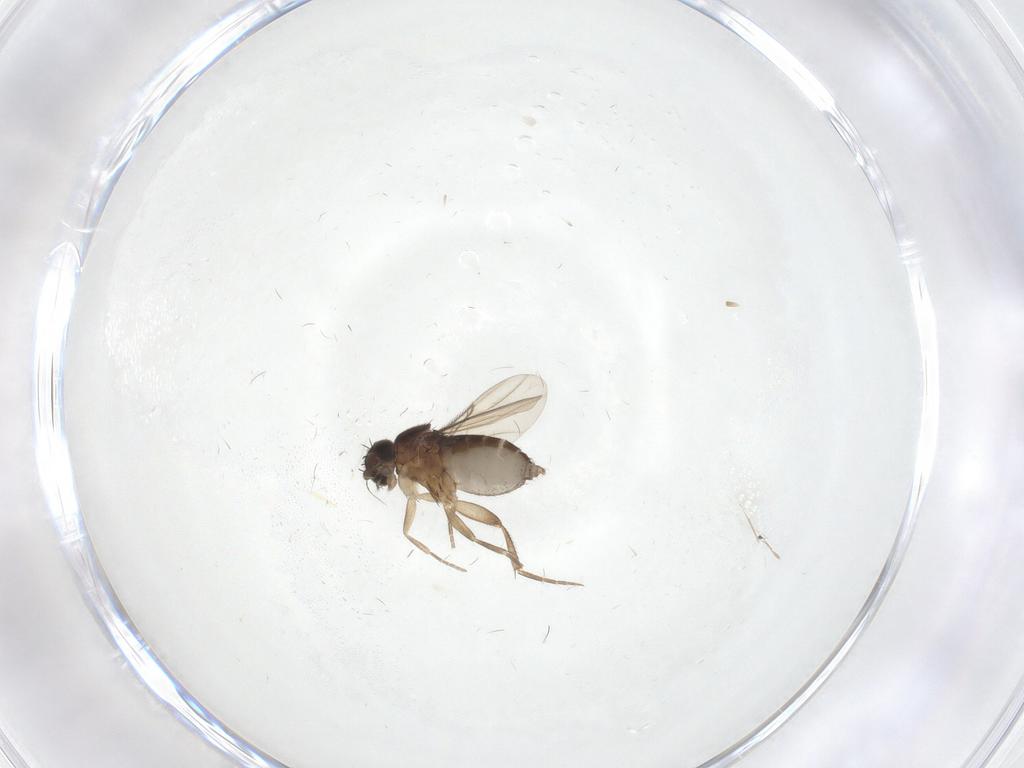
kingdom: Animalia
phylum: Arthropoda
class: Insecta
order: Diptera
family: Phoridae
